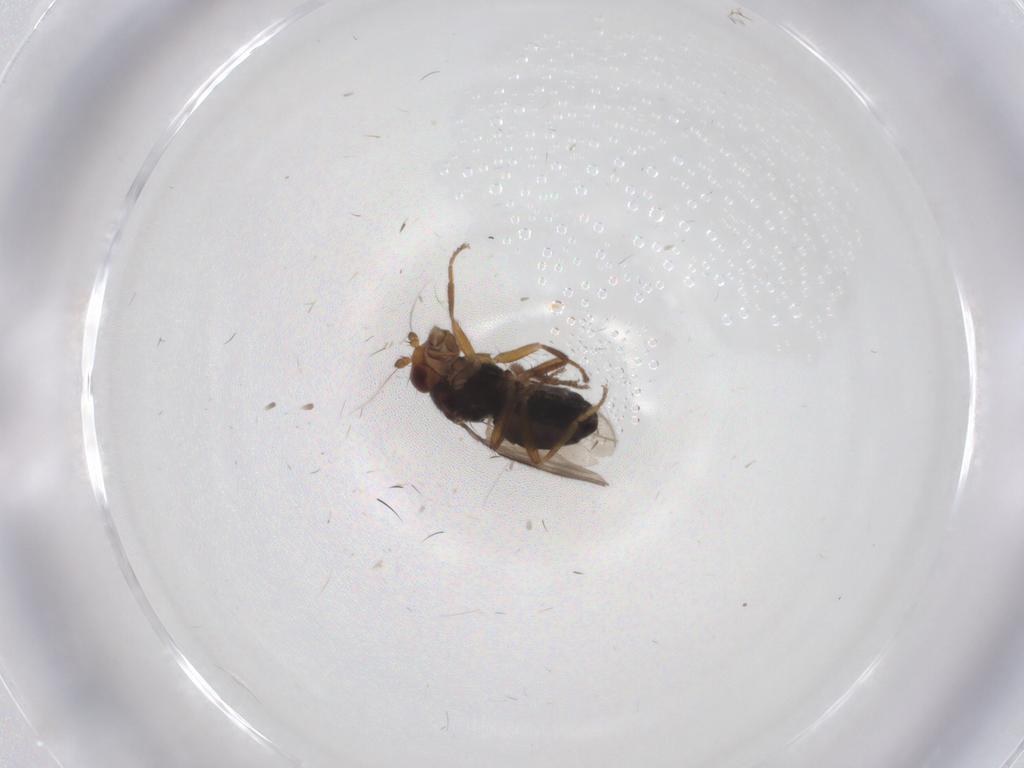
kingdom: Animalia
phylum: Arthropoda
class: Insecta
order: Diptera
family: Sphaeroceridae
